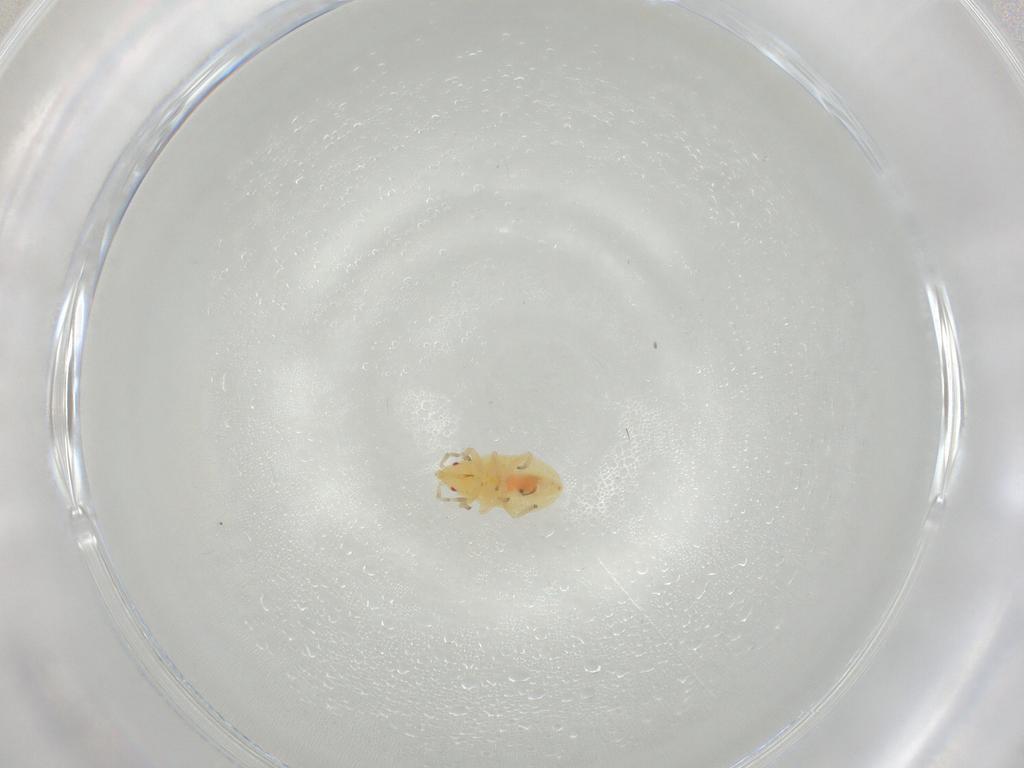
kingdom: Animalia
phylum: Arthropoda
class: Insecta
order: Hemiptera
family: Anthocoridae
